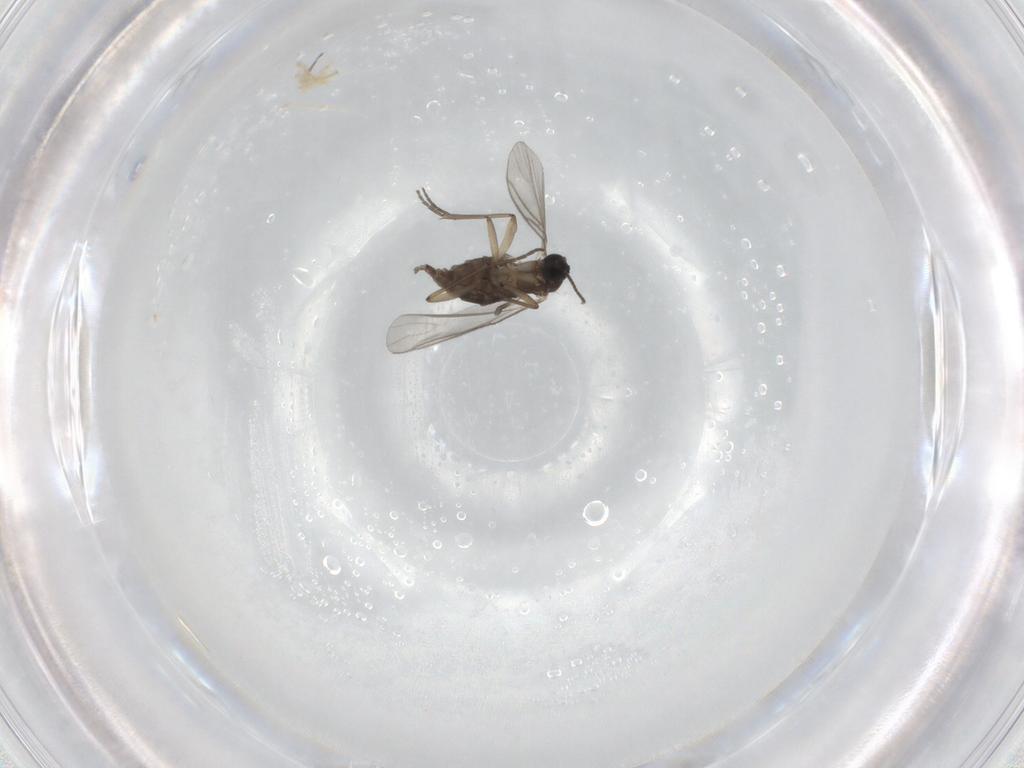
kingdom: Animalia
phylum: Arthropoda
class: Insecta
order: Diptera
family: Sciaridae
